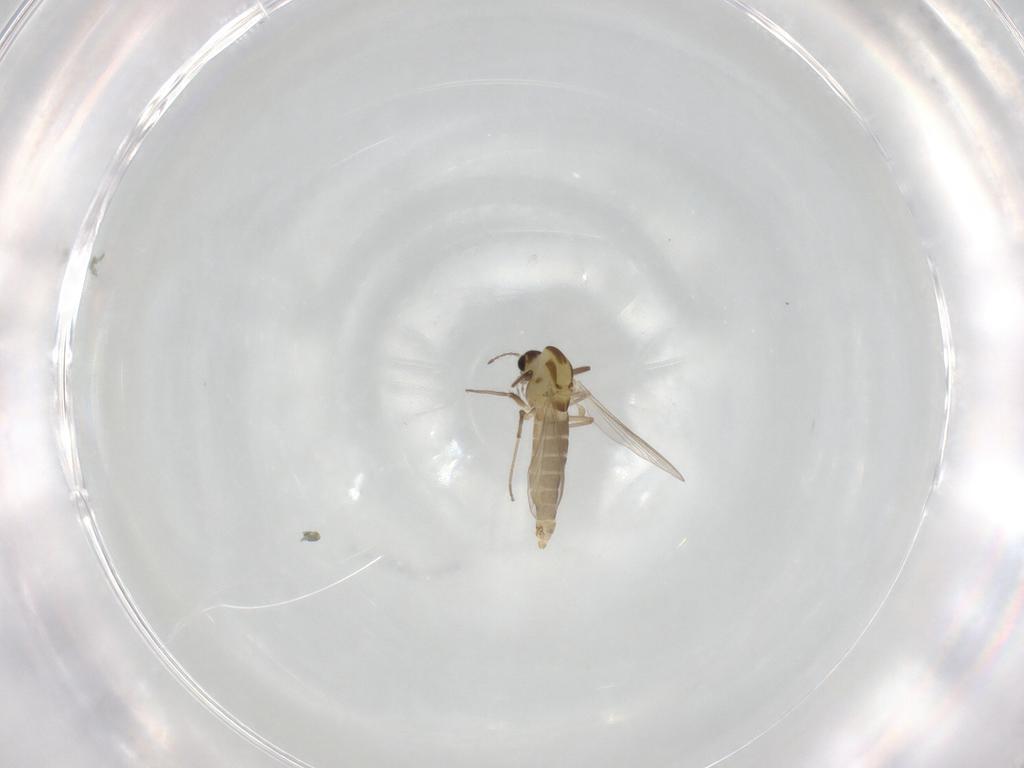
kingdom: Animalia
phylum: Arthropoda
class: Insecta
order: Diptera
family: Chironomidae
